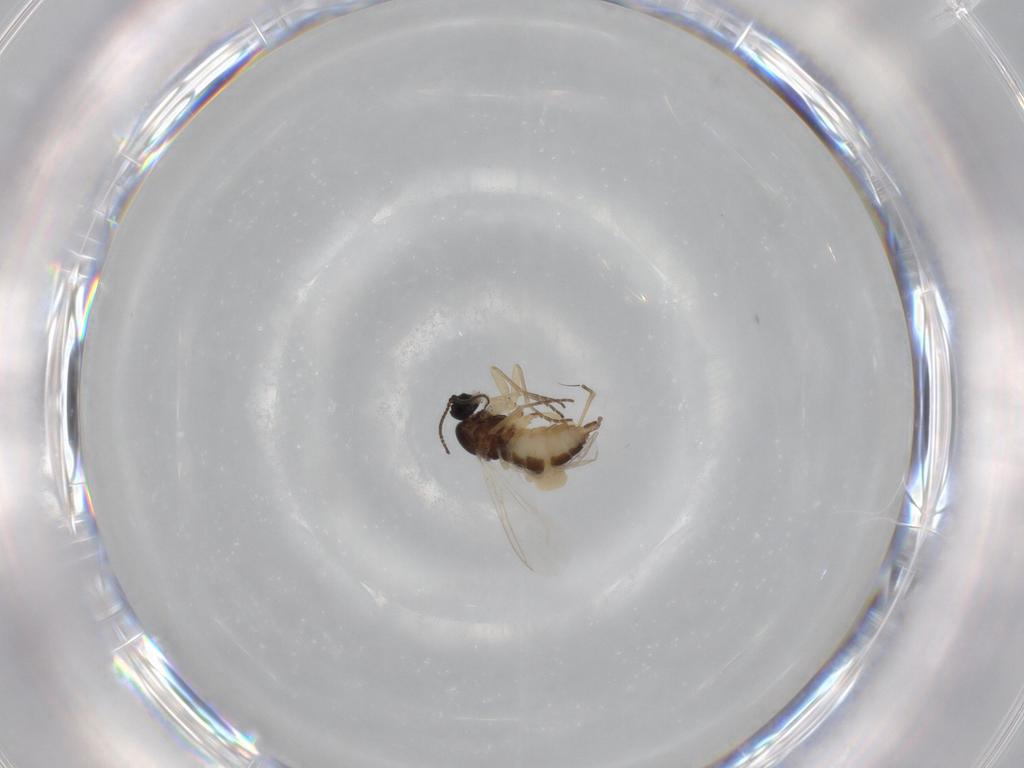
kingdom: Animalia
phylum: Arthropoda
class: Insecta
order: Diptera
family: Sciaridae
